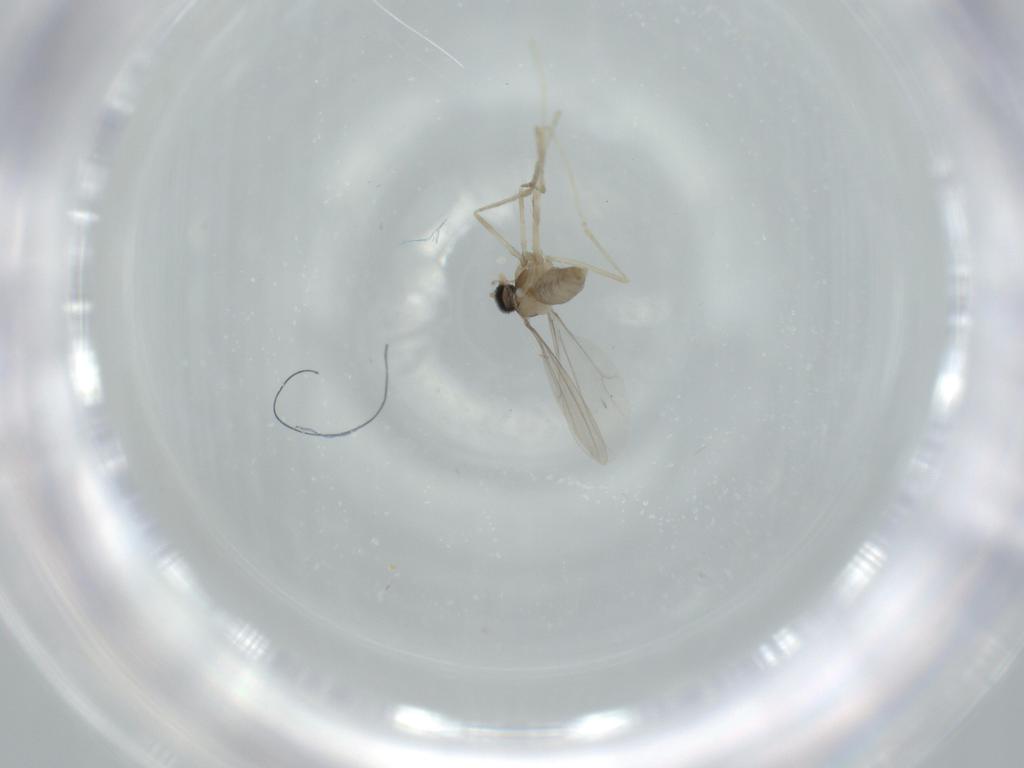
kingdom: Animalia
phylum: Arthropoda
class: Insecta
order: Diptera
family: Cecidomyiidae
